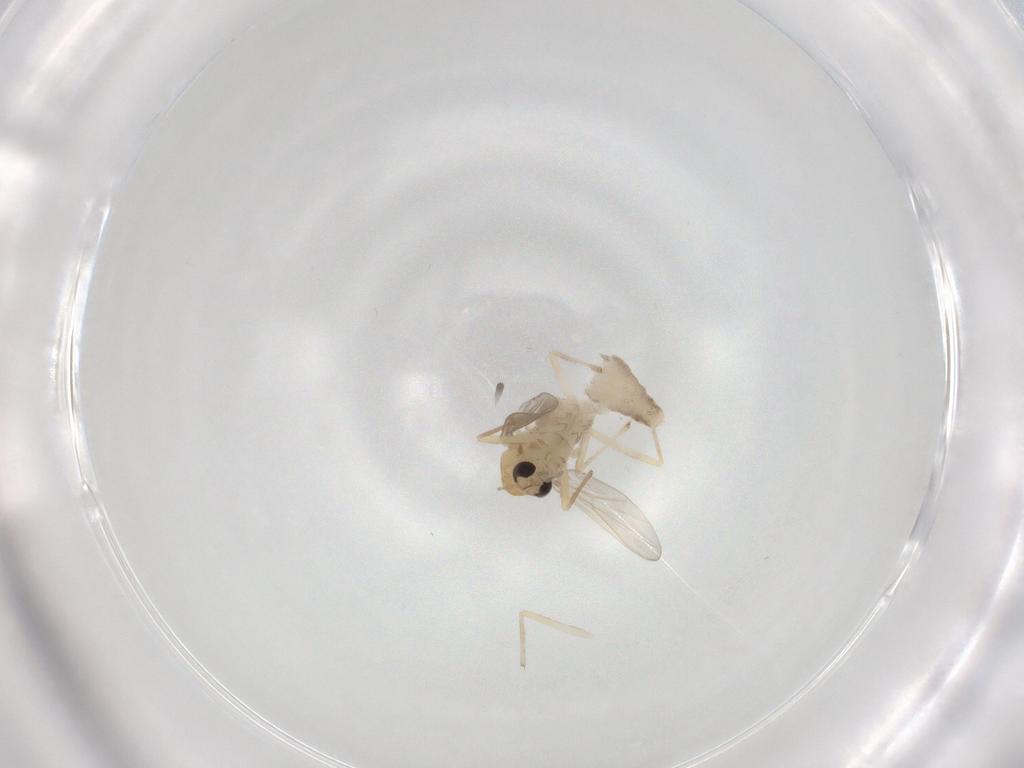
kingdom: Animalia
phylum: Arthropoda
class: Insecta
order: Diptera
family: Chironomidae
